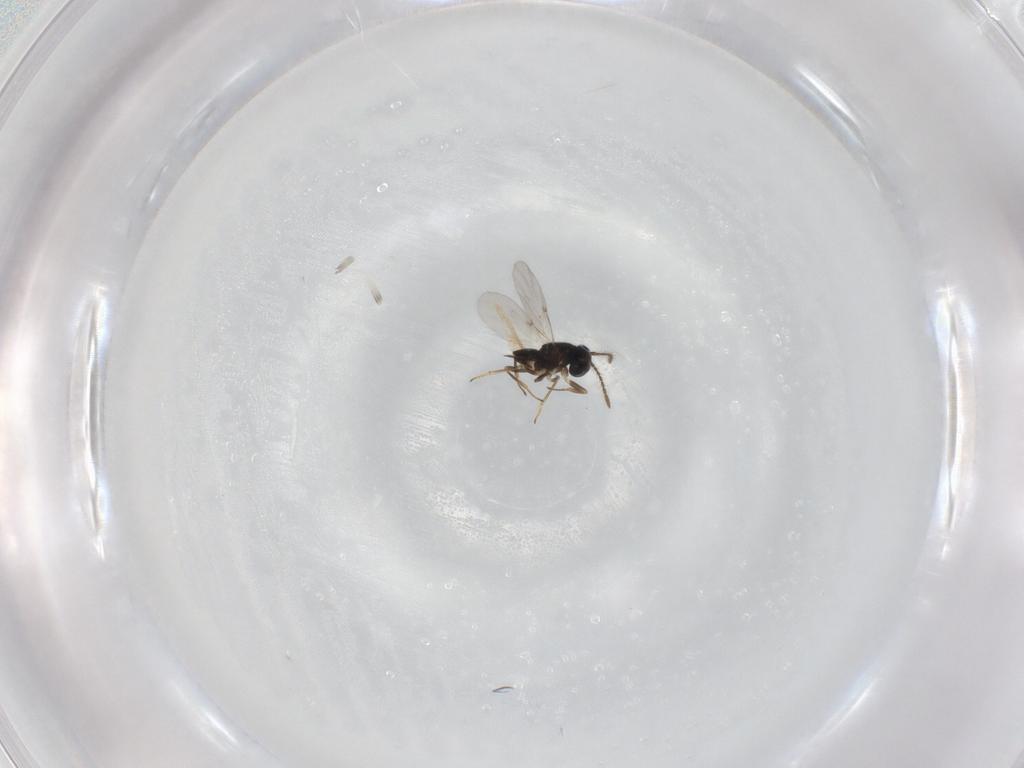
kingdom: Animalia
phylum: Arthropoda
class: Insecta
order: Hymenoptera
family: Encyrtidae
